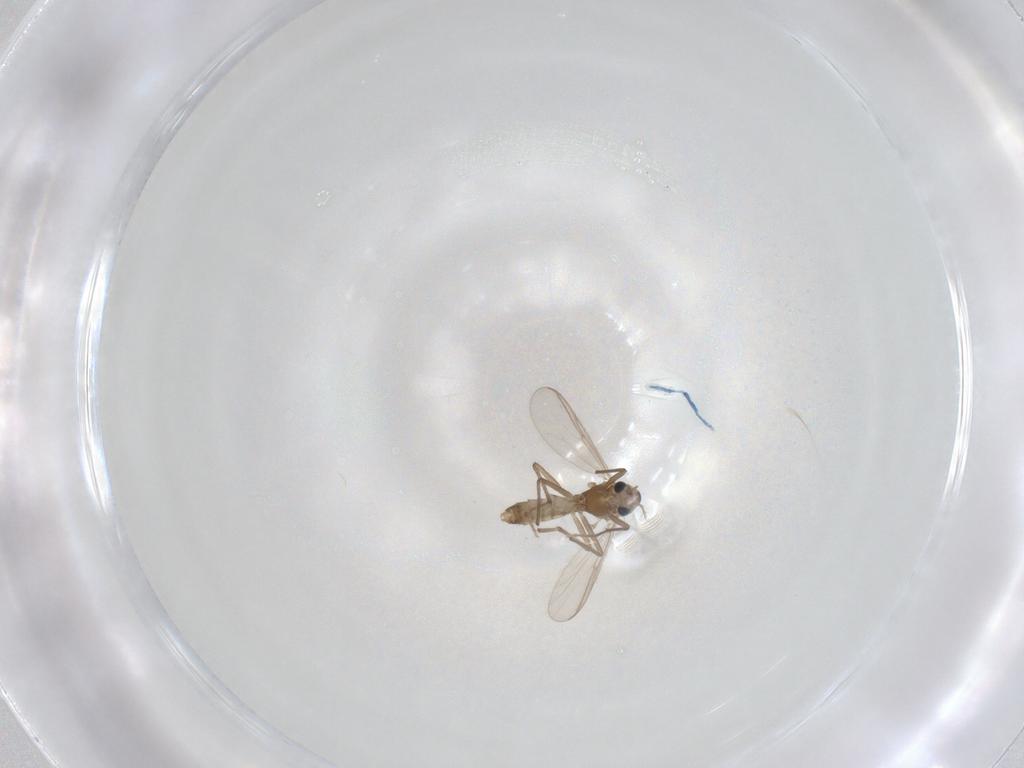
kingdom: Animalia
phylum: Arthropoda
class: Insecta
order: Diptera
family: Cecidomyiidae
